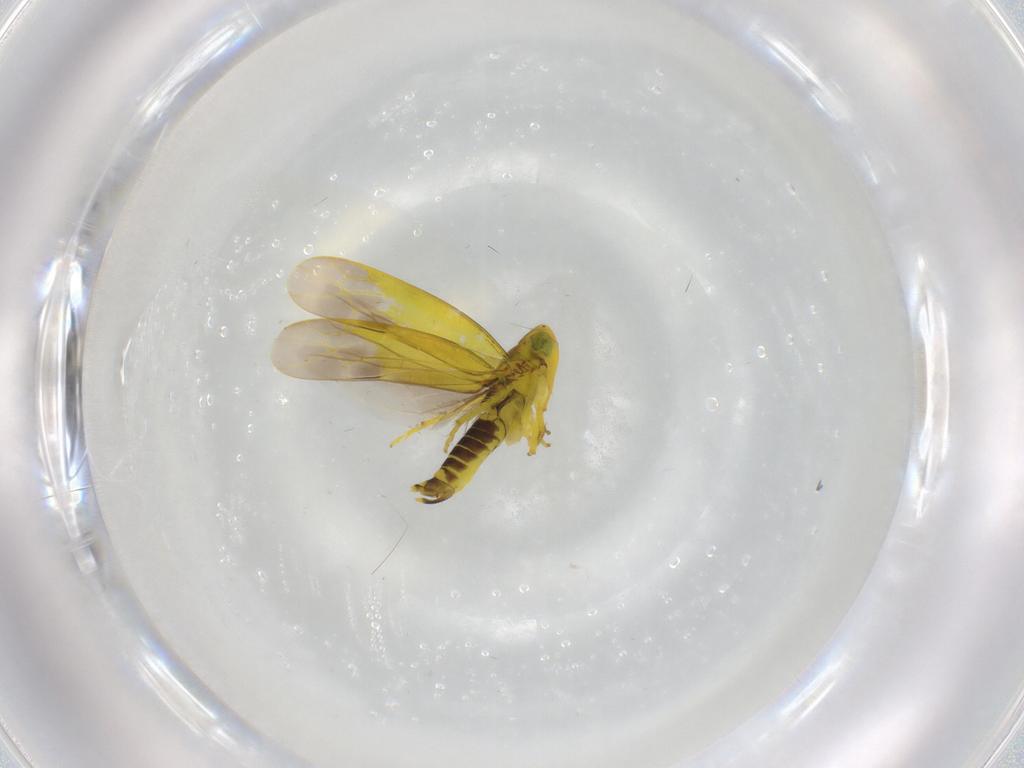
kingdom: Animalia
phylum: Arthropoda
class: Insecta
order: Hemiptera
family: Cicadellidae
